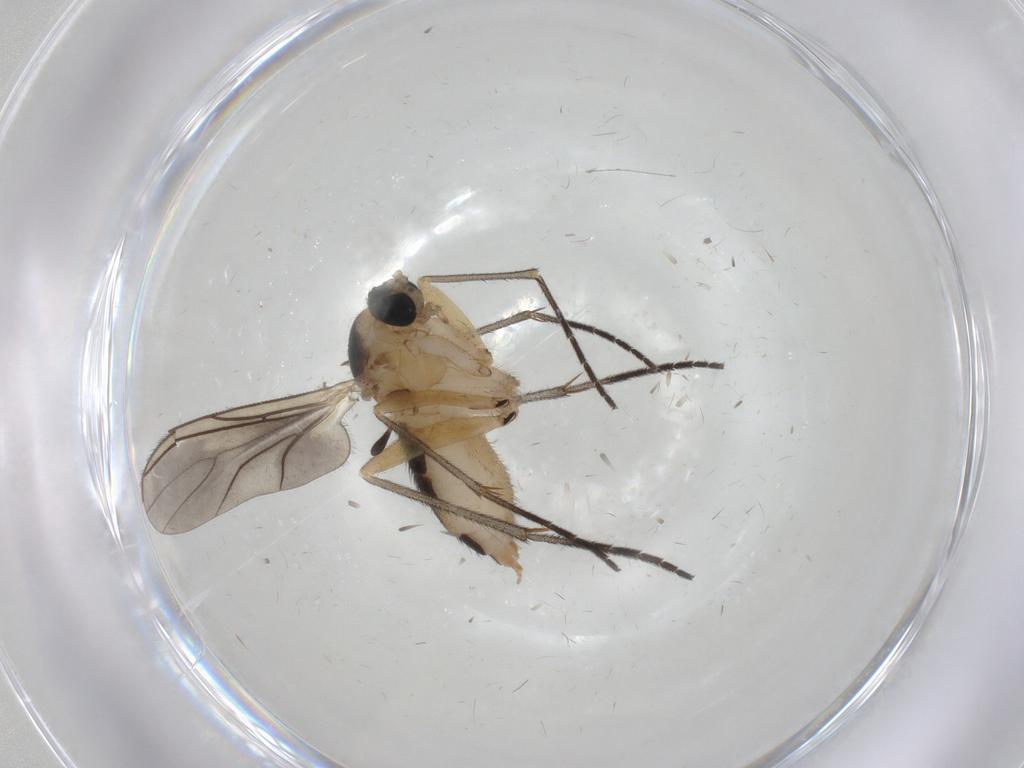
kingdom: Animalia
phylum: Arthropoda
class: Insecta
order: Diptera
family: Sciaridae
